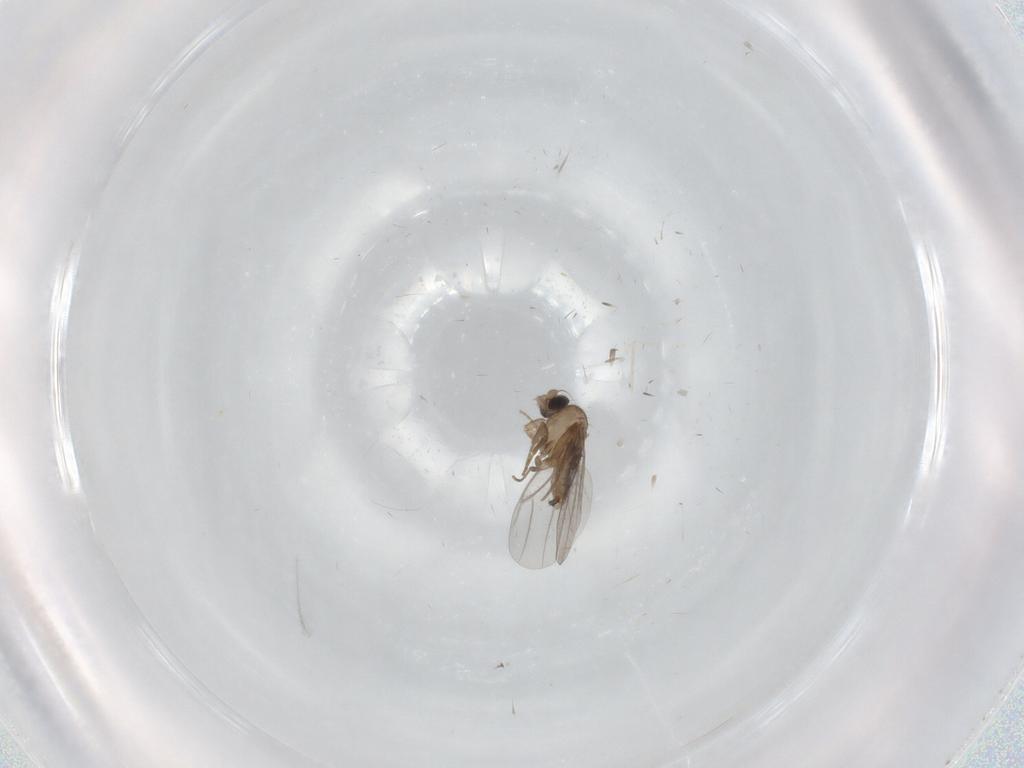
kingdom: Animalia
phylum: Arthropoda
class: Insecta
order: Diptera
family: Cecidomyiidae
